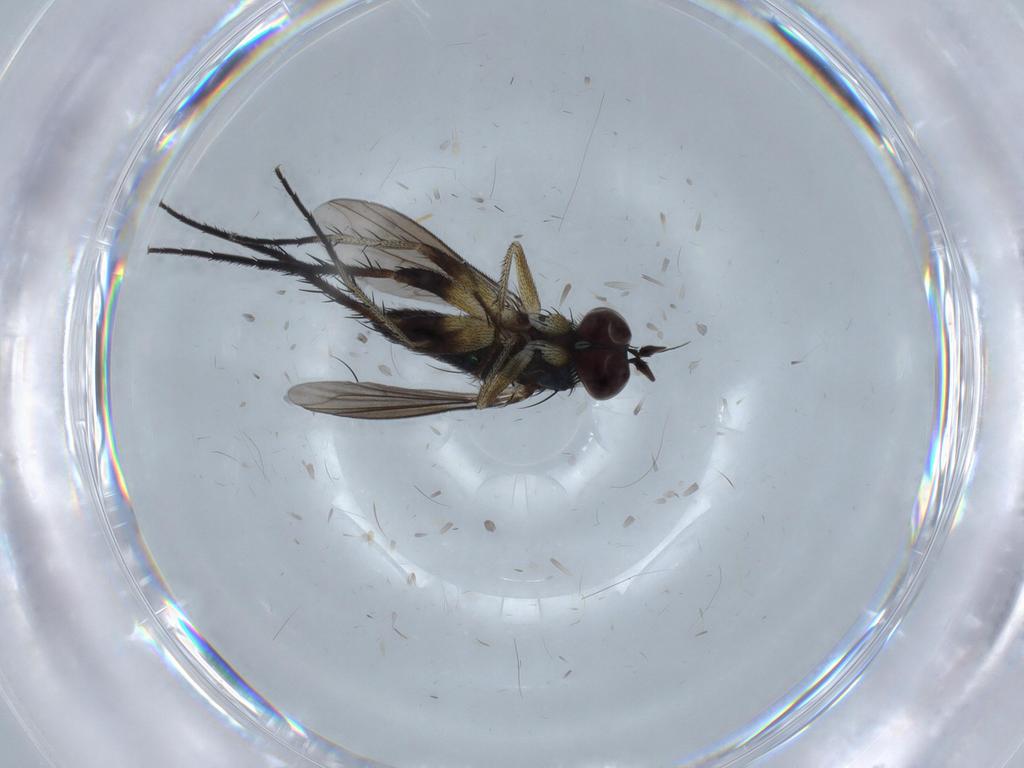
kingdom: Animalia
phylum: Arthropoda
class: Insecta
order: Diptera
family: Dolichopodidae
